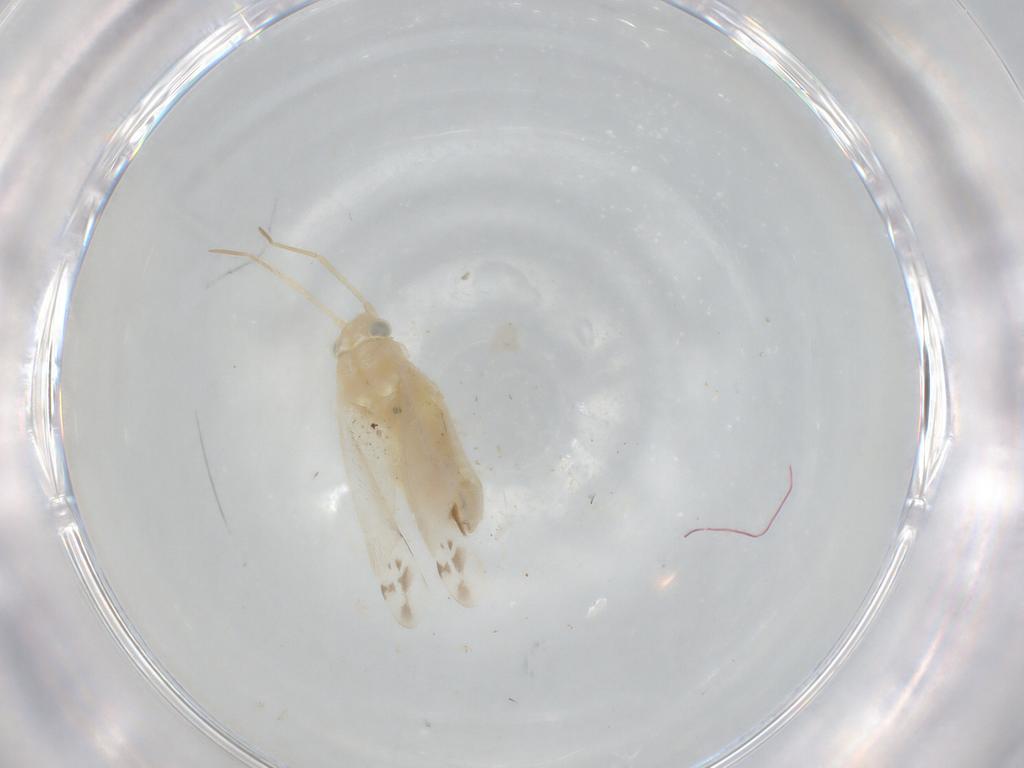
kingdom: Animalia
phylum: Arthropoda
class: Insecta
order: Hemiptera
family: Miridae
